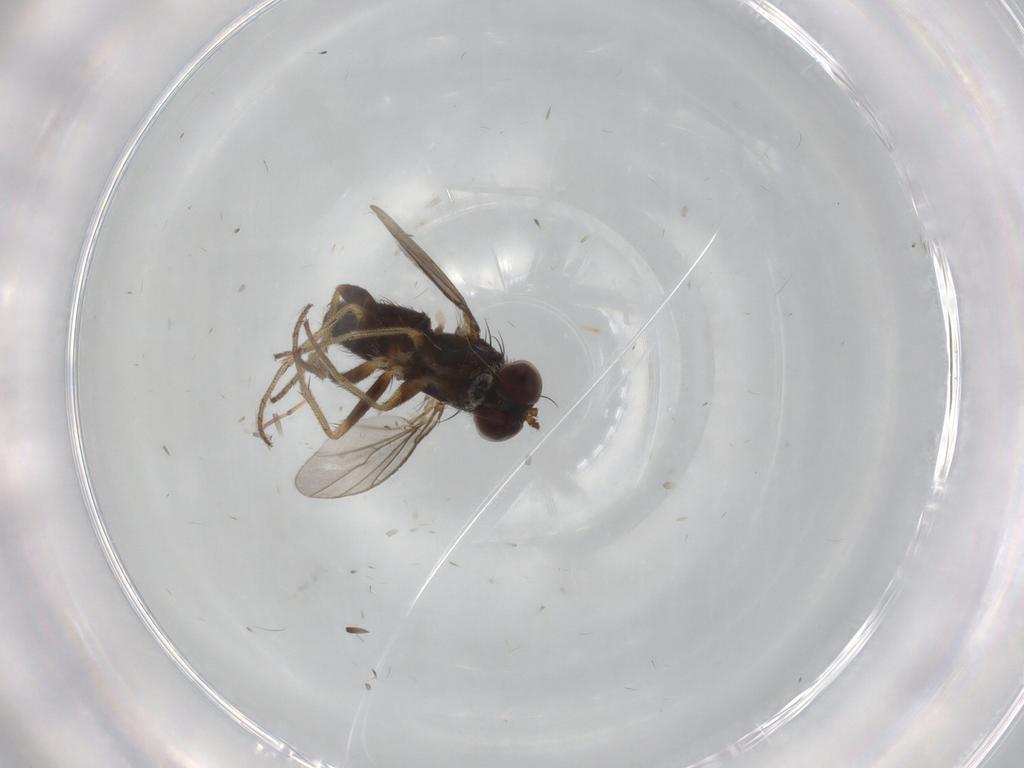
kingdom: Animalia
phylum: Arthropoda
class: Insecta
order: Diptera
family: Dolichopodidae
